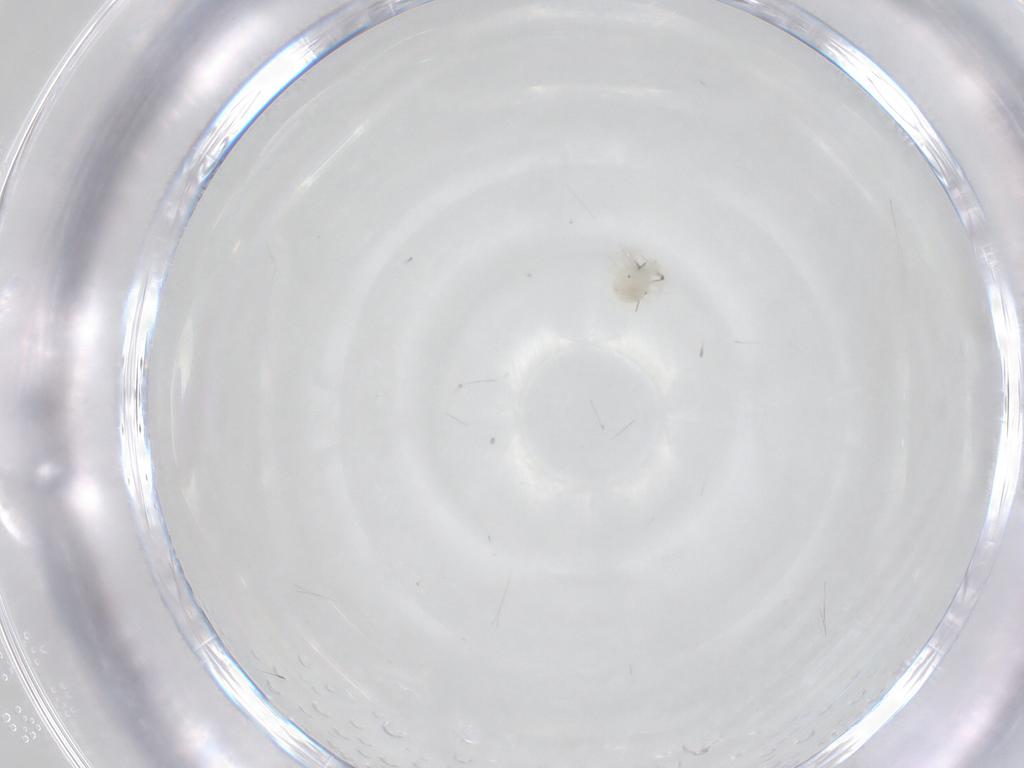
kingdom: Animalia
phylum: Arthropoda
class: Arachnida
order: Trombidiformes
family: Anystidae
